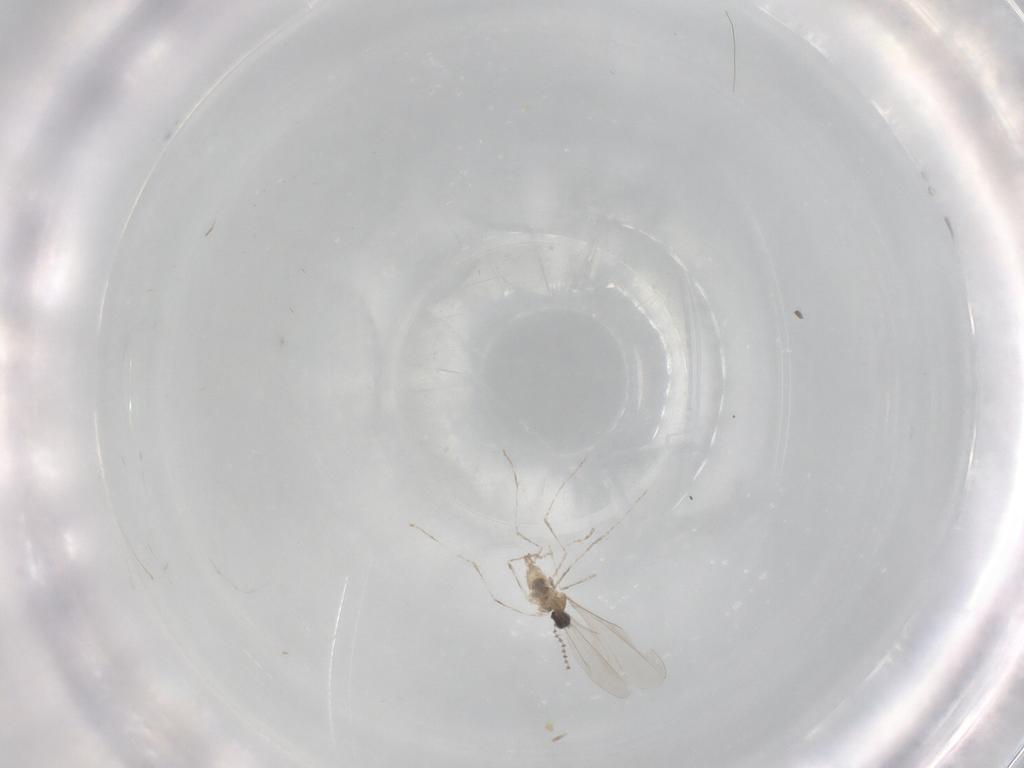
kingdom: Animalia
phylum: Arthropoda
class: Insecta
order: Diptera
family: Cecidomyiidae
